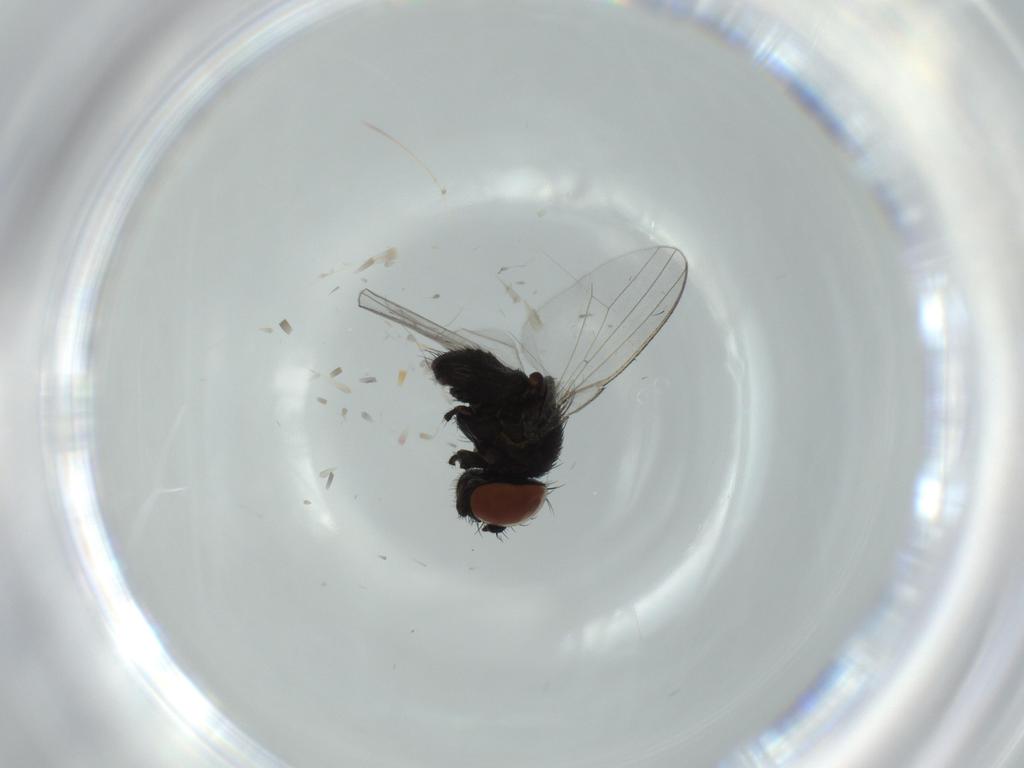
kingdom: Animalia
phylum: Arthropoda
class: Insecta
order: Diptera
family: Milichiidae
